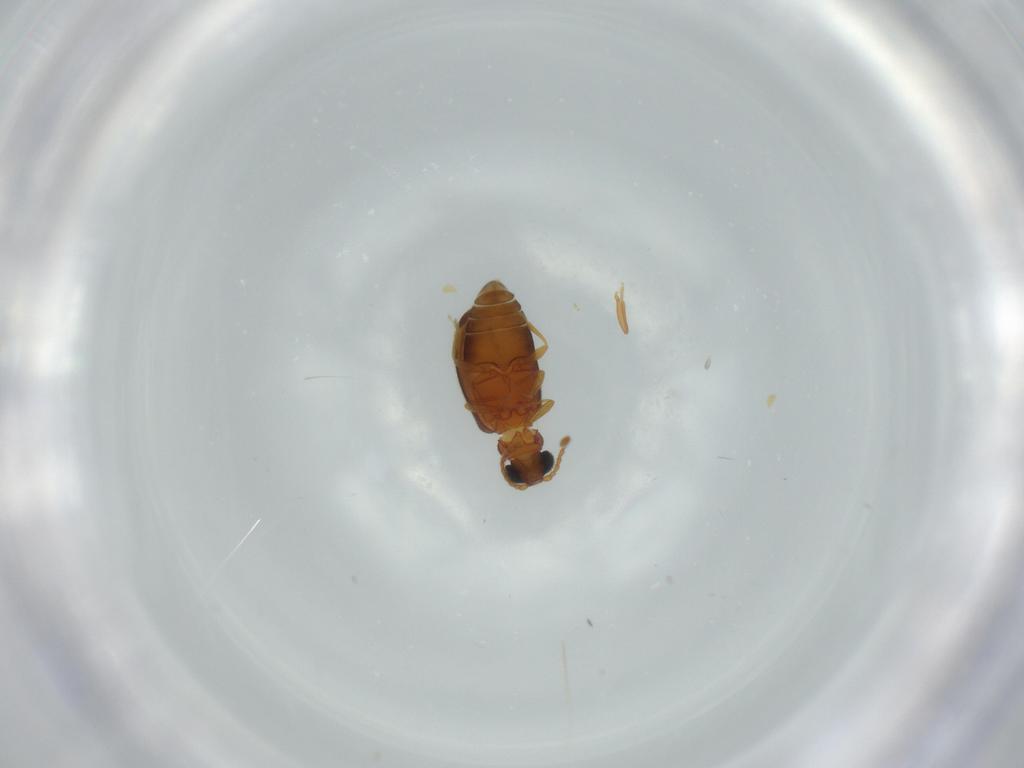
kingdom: Animalia
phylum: Arthropoda
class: Insecta
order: Coleoptera
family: Aderidae
